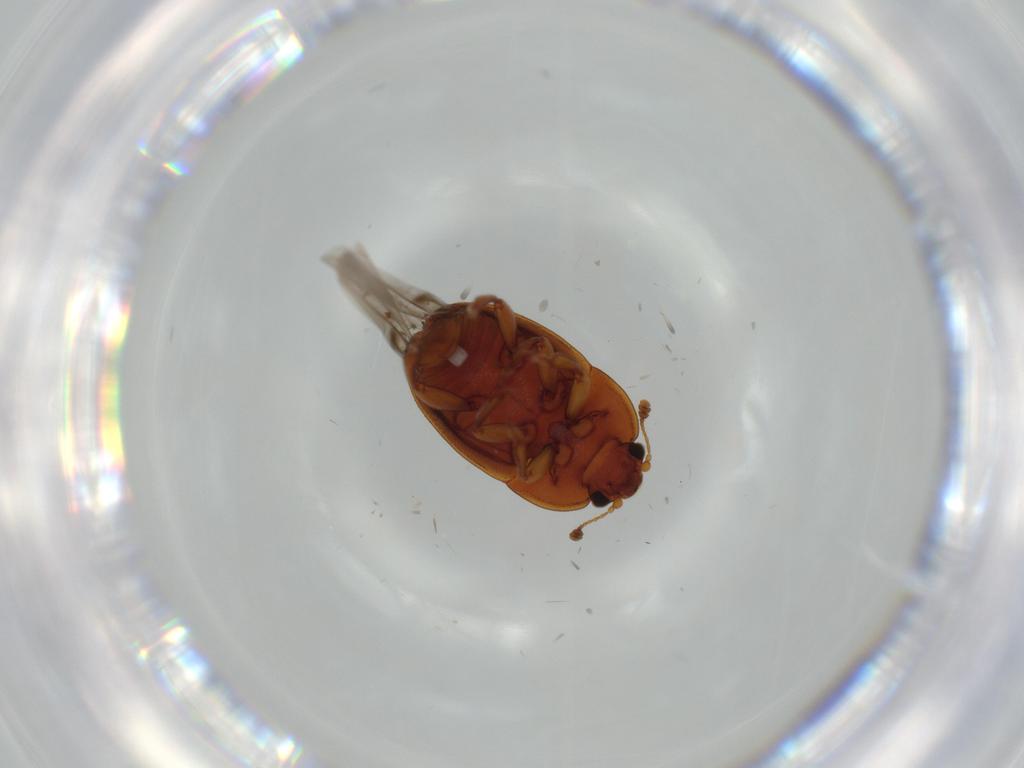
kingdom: Animalia
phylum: Arthropoda
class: Insecta
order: Coleoptera
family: Nitidulidae
